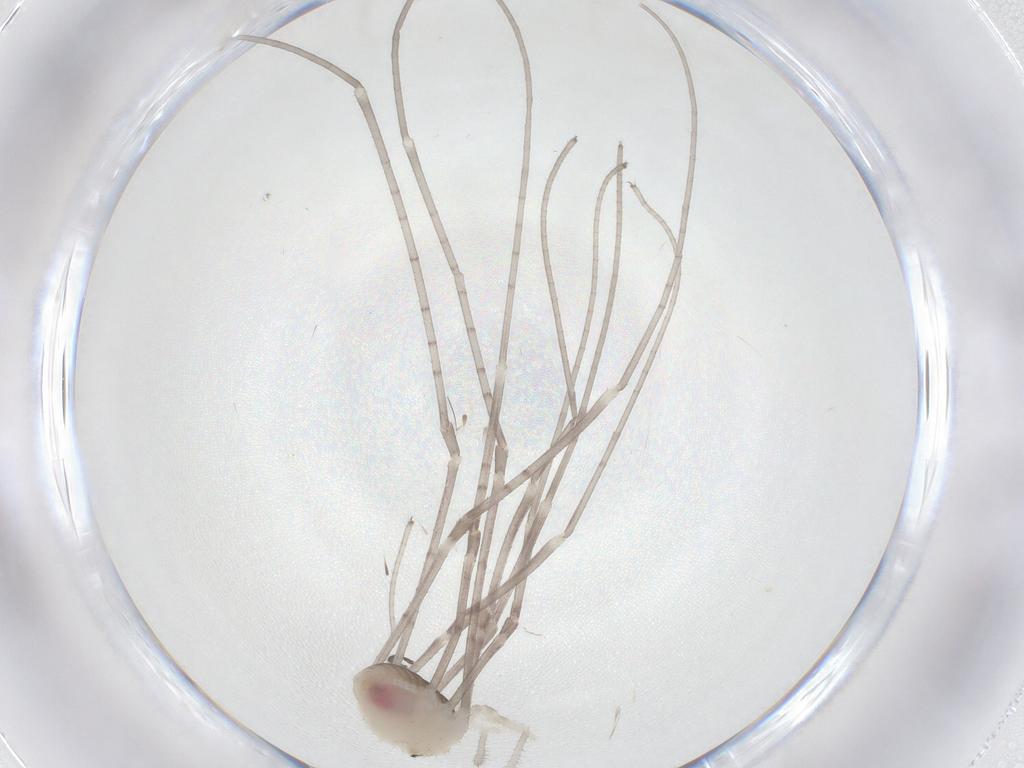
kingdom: Animalia
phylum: Arthropoda
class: Arachnida
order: Opiliones
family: Sclerosomatidae
